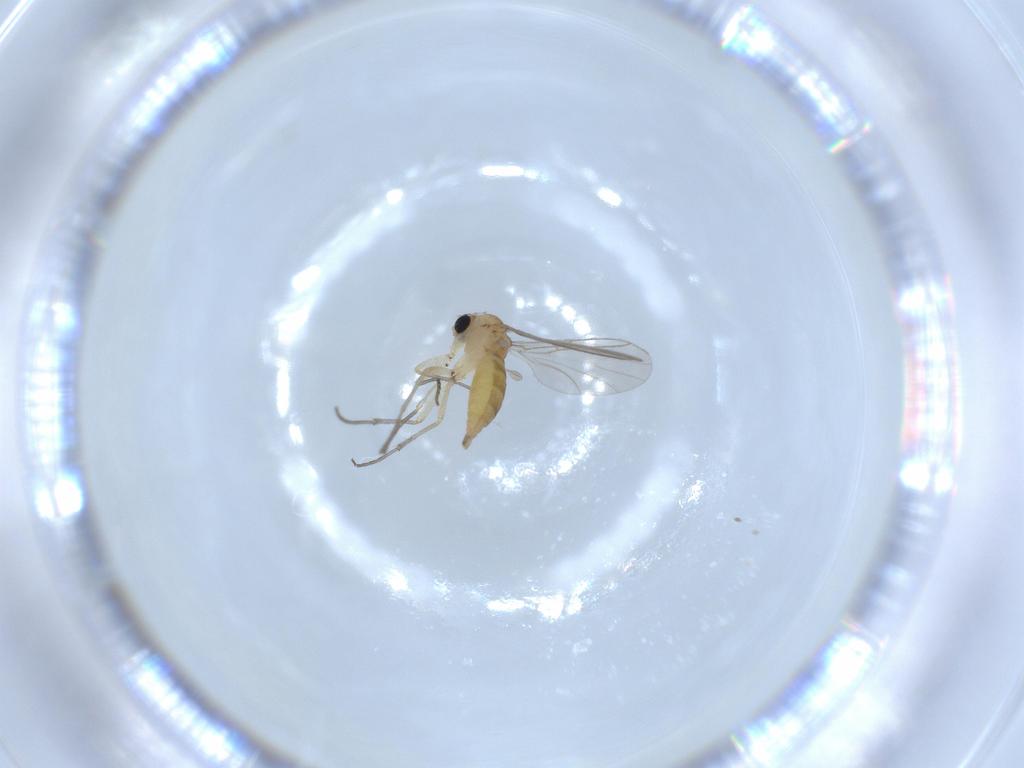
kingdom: Animalia
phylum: Arthropoda
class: Insecta
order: Diptera
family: Sciaridae
